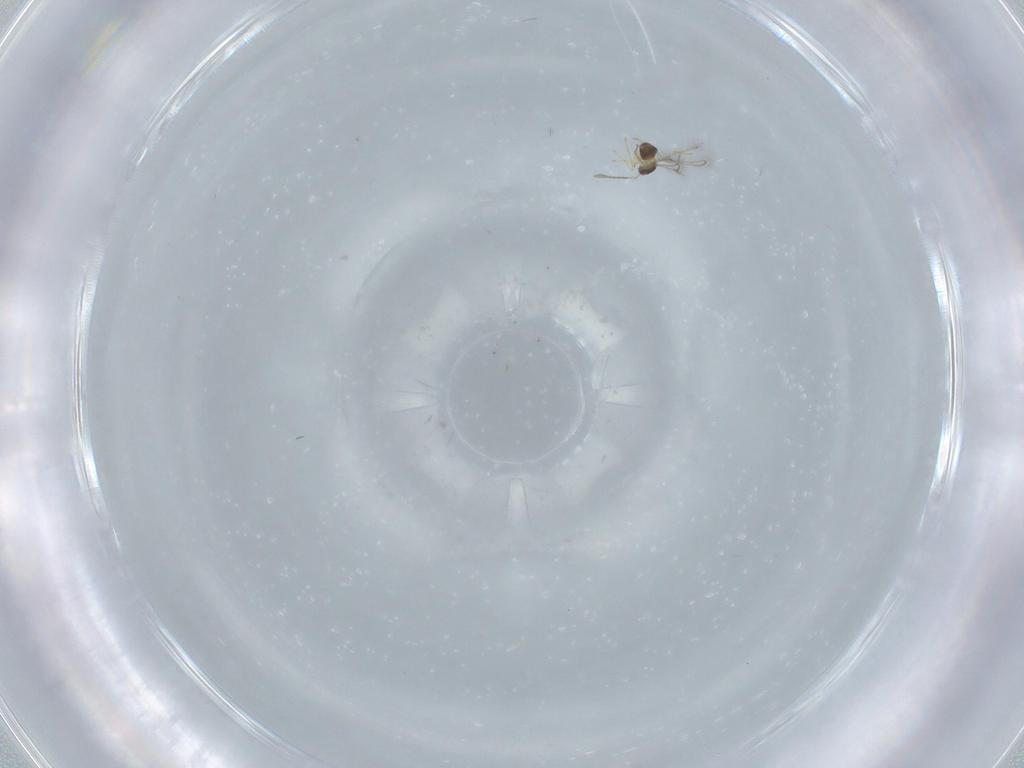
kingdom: Animalia
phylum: Arthropoda
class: Insecta
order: Hymenoptera
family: Mymaridae
